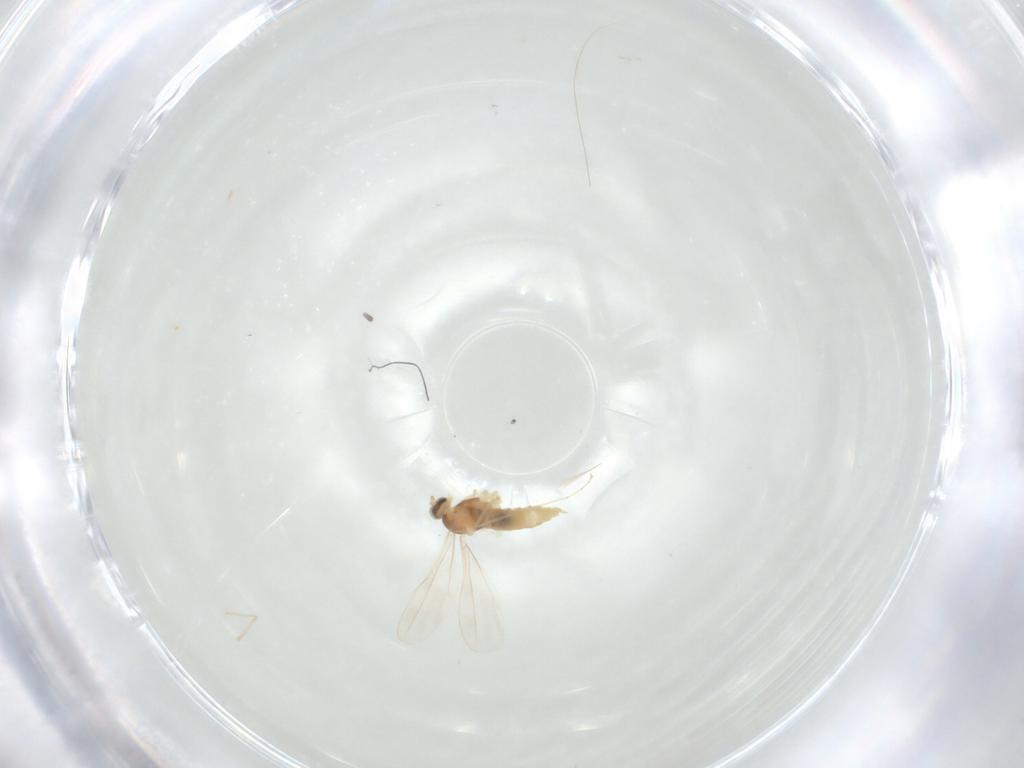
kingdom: Animalia
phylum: Arthropoda
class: Insecta
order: Diptera
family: Cecidomyiidae
